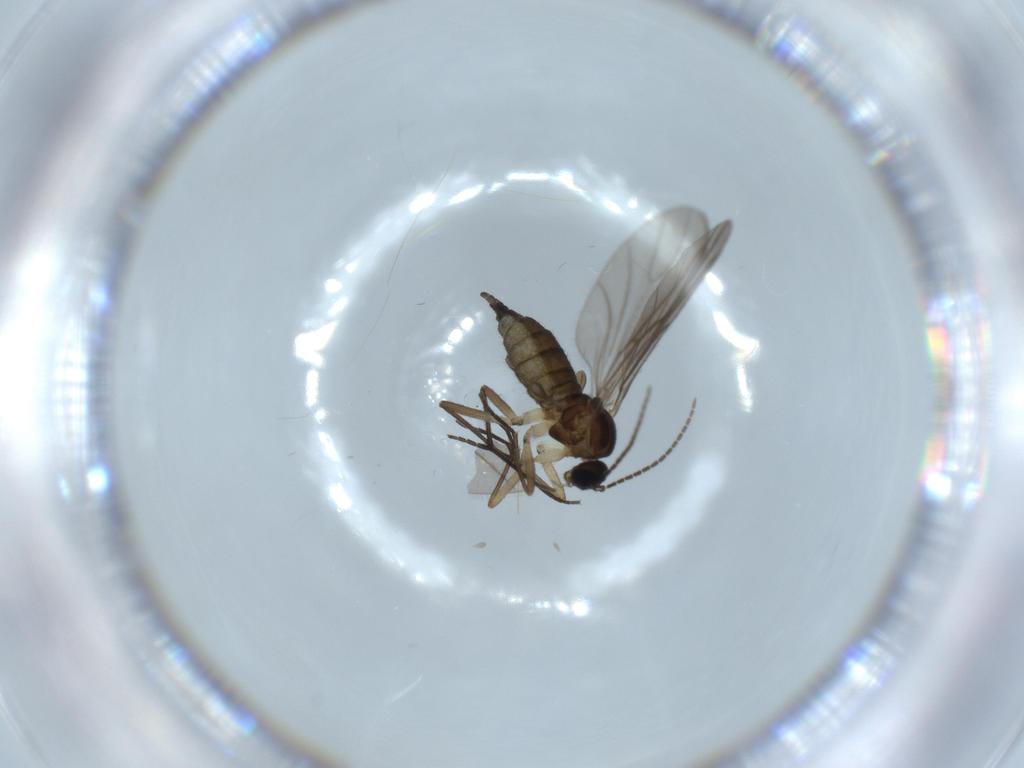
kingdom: Animalia
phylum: Arthropoda
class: Insecta
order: Diptera
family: Sciaridae
